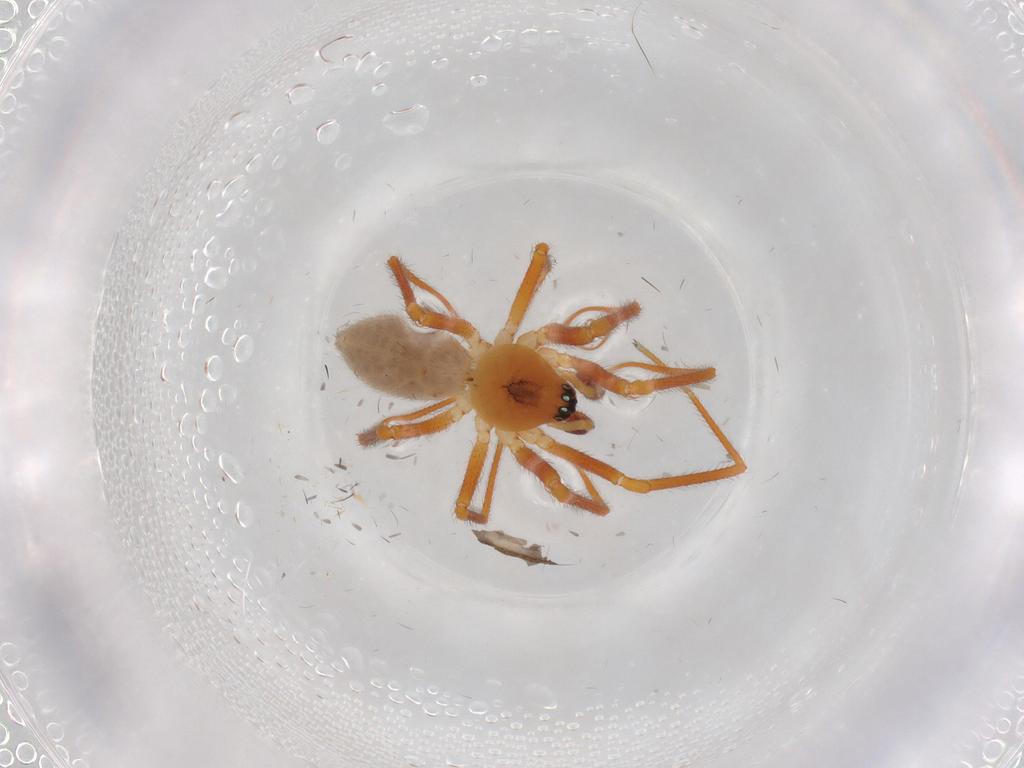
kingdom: Animalia
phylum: Arthropoda
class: Arachnida
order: Araneae
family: Linyphiidae
